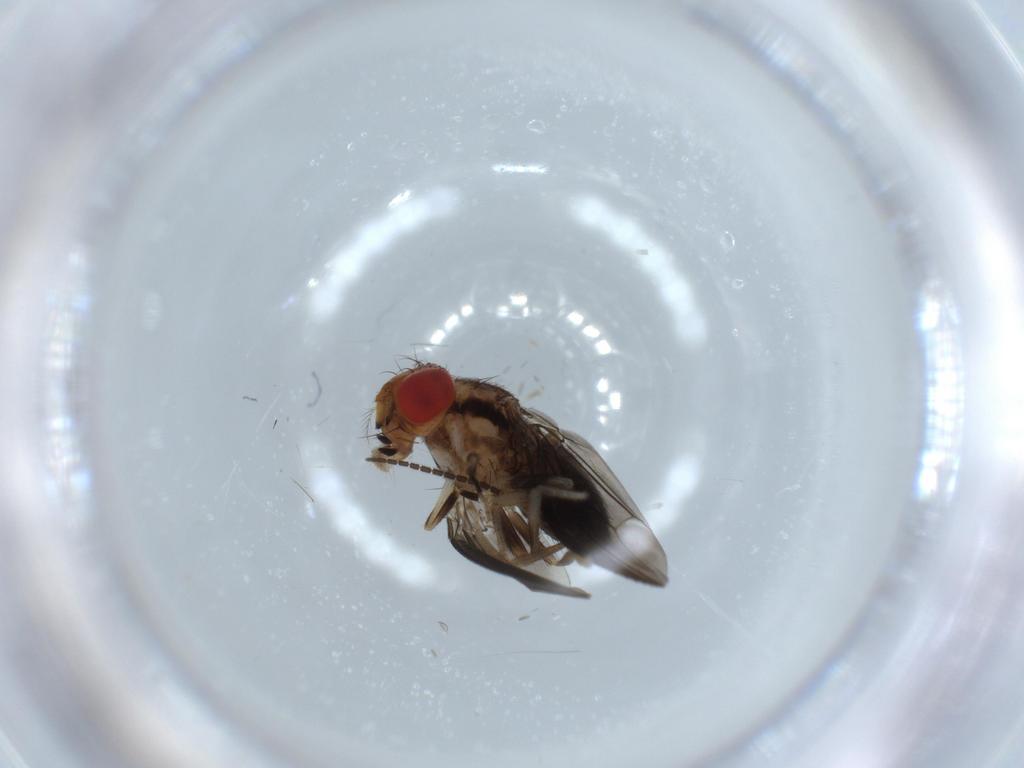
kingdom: Animalia
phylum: Arthropoda
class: Insecta
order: Diptera
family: Drosophilidae
